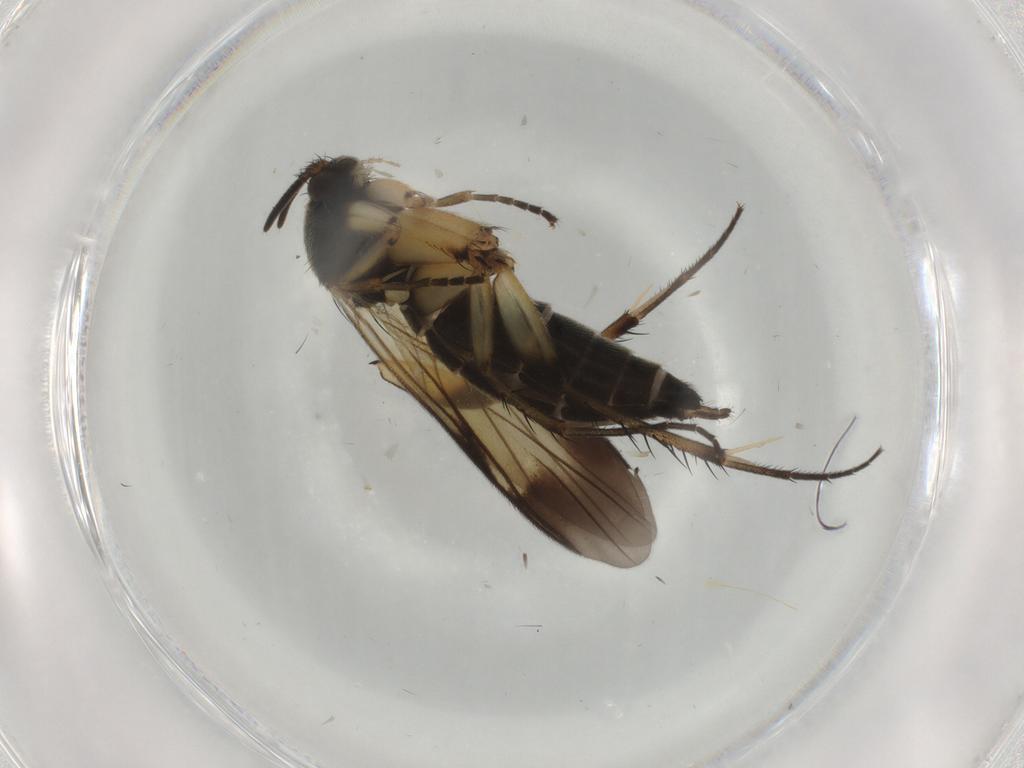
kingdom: Animalia
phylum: Arthropoda
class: Insecta
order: Diptera
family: Mycetophilidae
